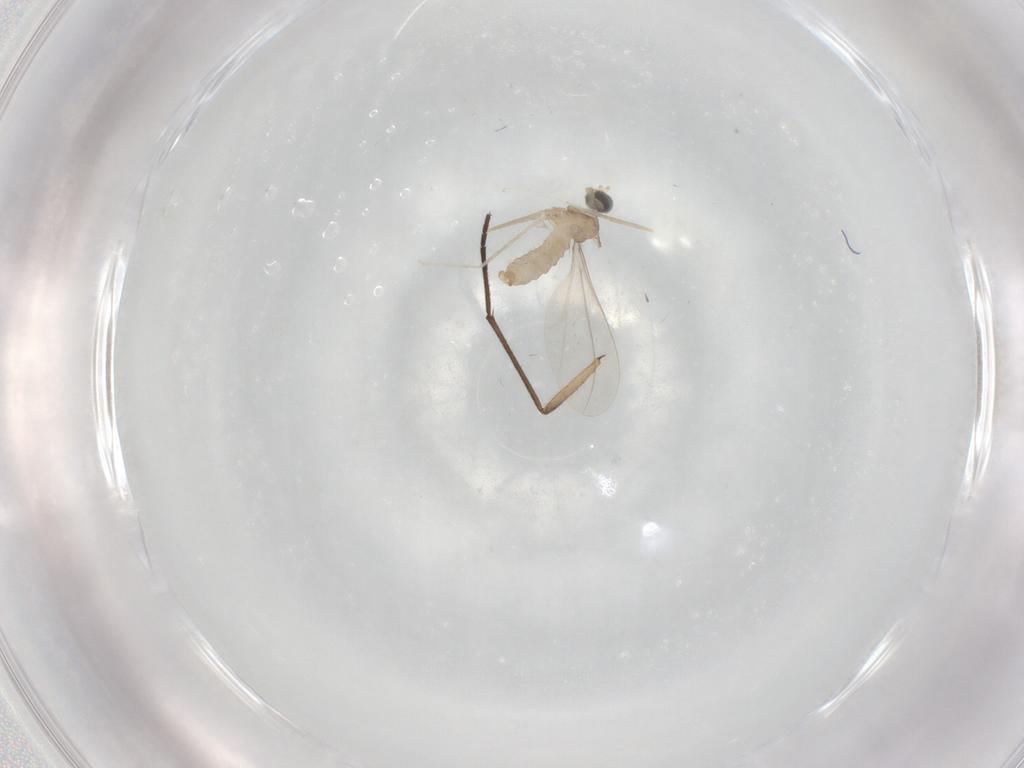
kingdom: Animalia
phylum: Arthropoda
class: Insecta
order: Diptera
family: Cecidomyiidae
